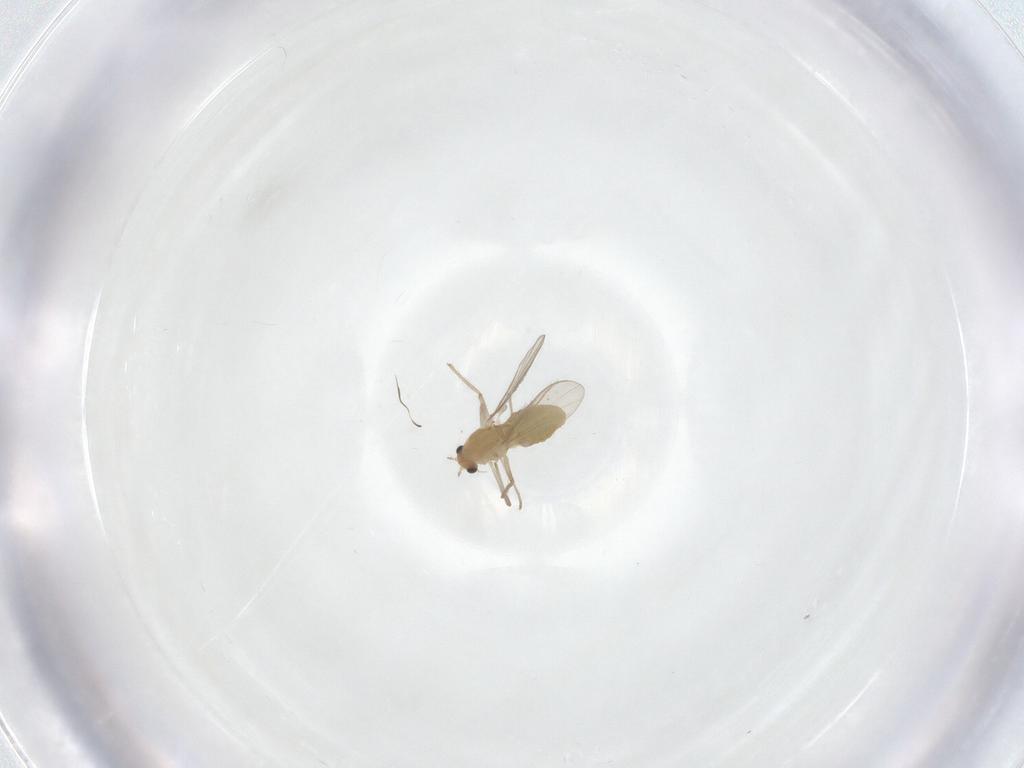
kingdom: Animalia
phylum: Arthropoda
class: Insecta
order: Diptera
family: Chironomidae
